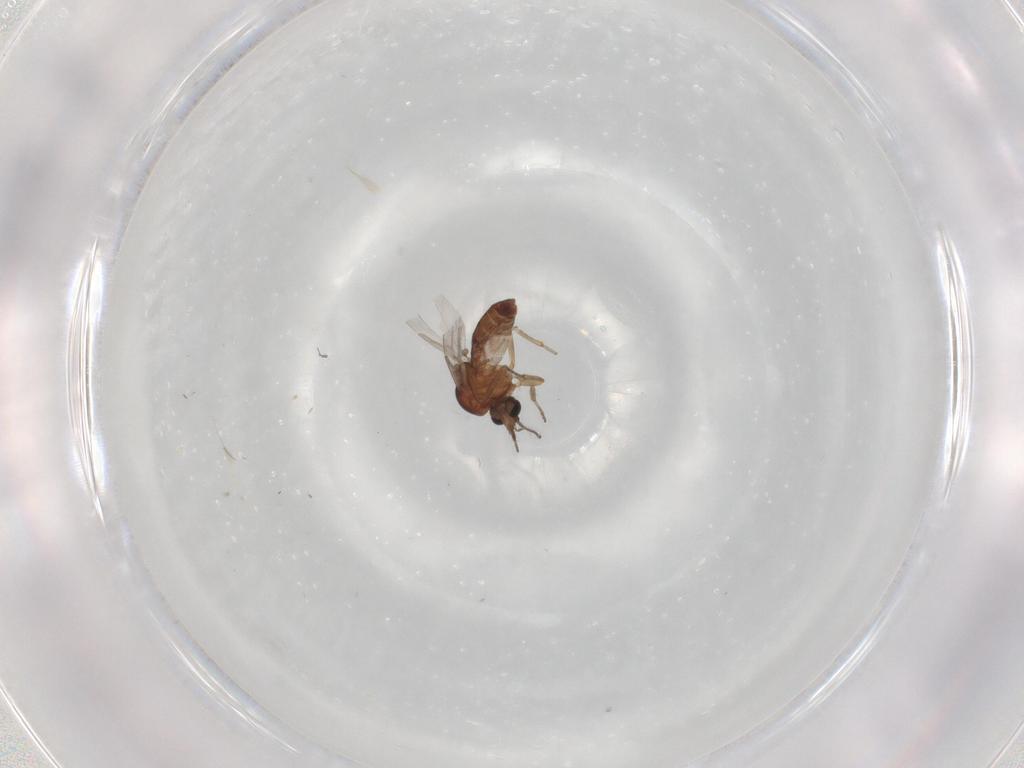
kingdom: Animalia
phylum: Arthropoda
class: Insecta
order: Diptera
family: Ceratopogonidae
